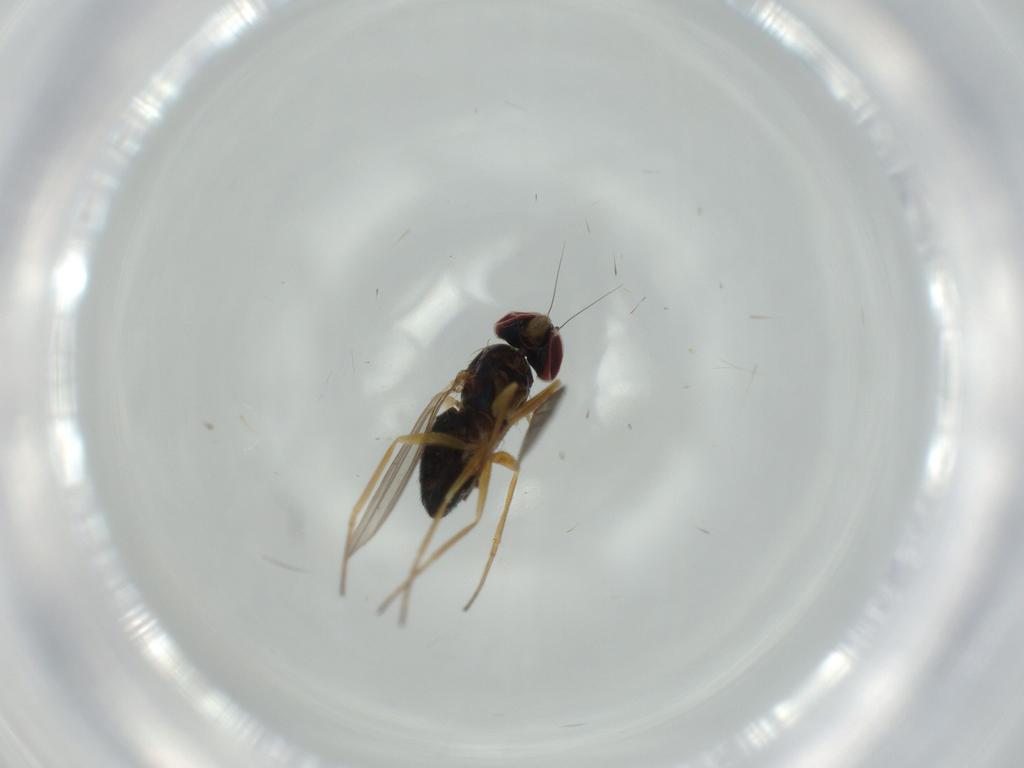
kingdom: Animalia
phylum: Arthropoda
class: Insecta
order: Diptera
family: Dolichopodidae
